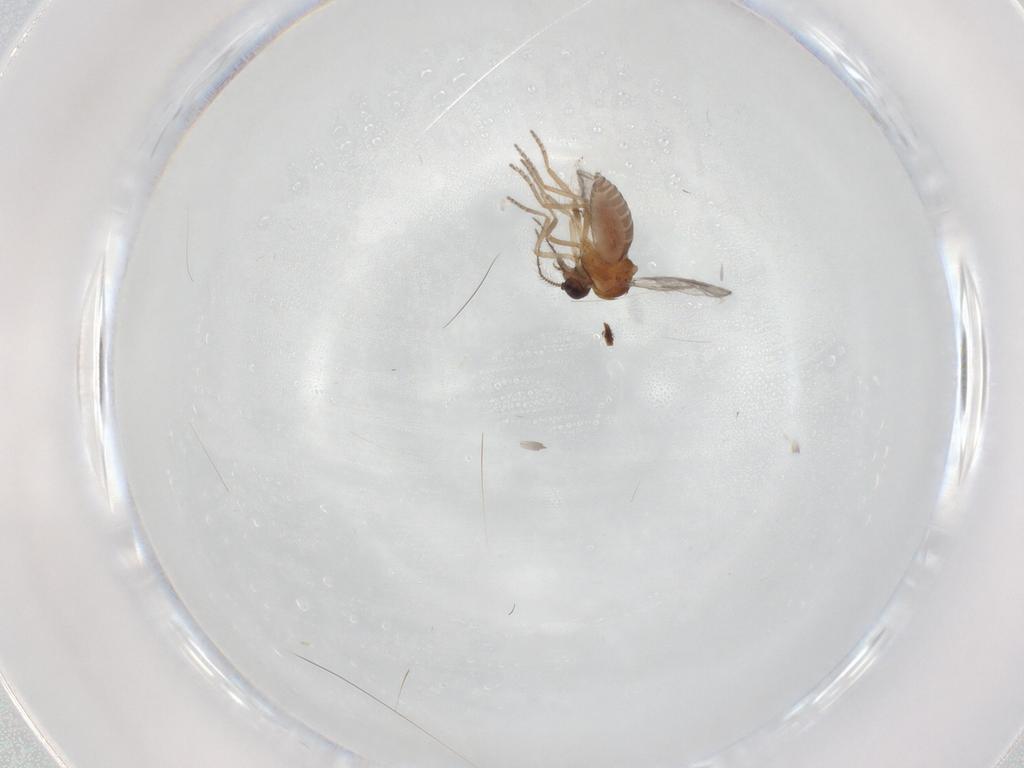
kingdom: Animalia
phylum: Arthropoda
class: Insecta
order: Diptera
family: Ceratopogonidae
